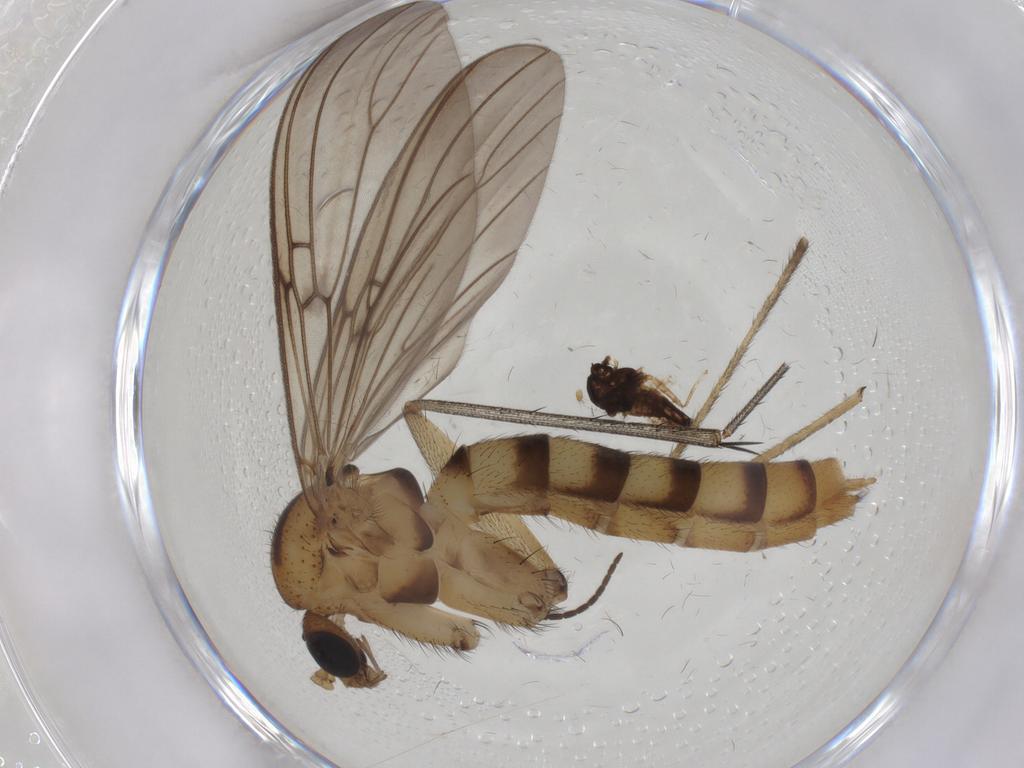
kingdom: Animalia
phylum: Arthropoda
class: Insecta
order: Diptera
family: Mycetophilidae
